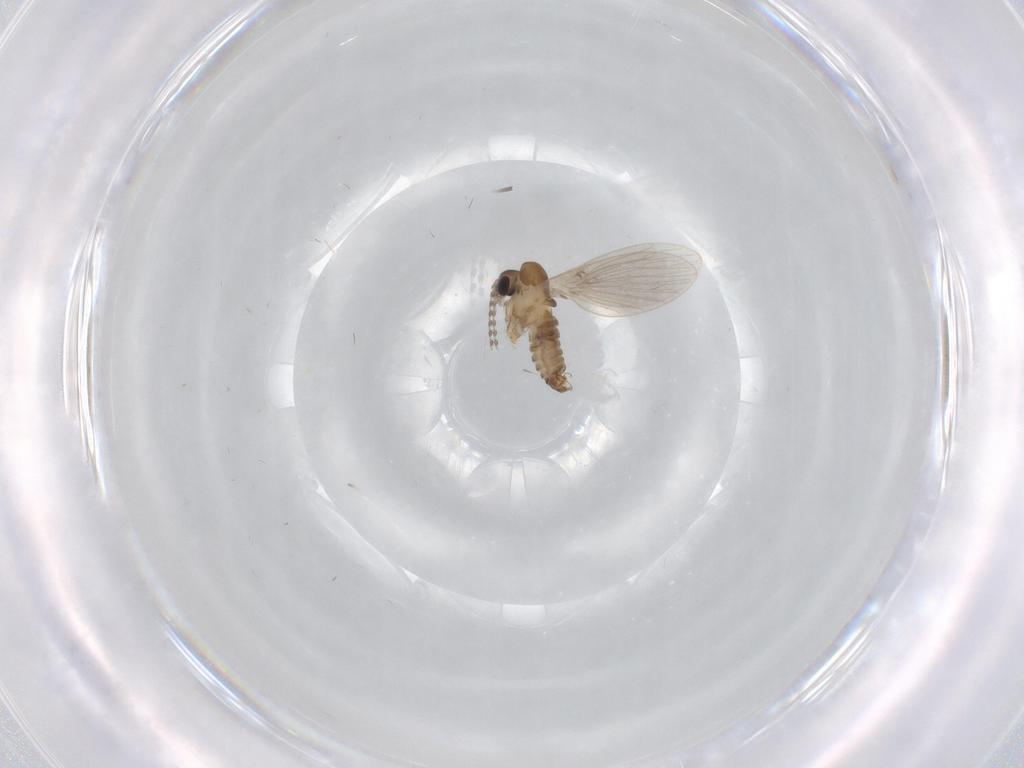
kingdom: Animalia
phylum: Arthropoda
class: Insecta
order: Diptera
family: Psychodidae
